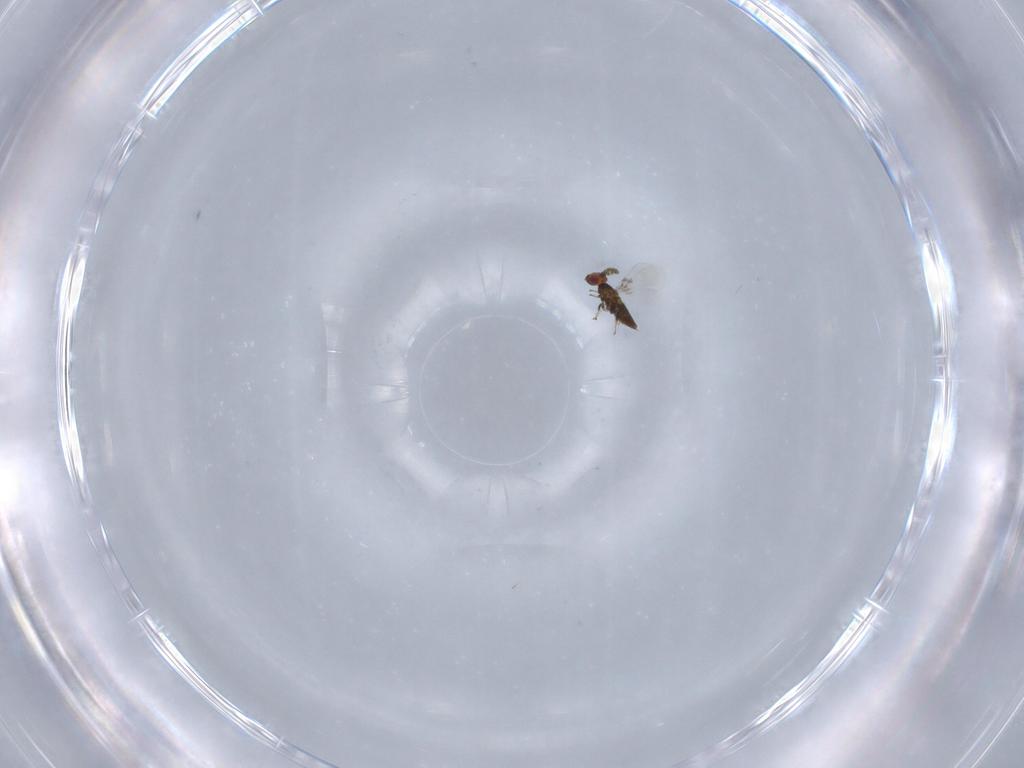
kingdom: Animalia
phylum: Arthropoda
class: Insecta
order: Hymenoptera
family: Trichogrammatidae
